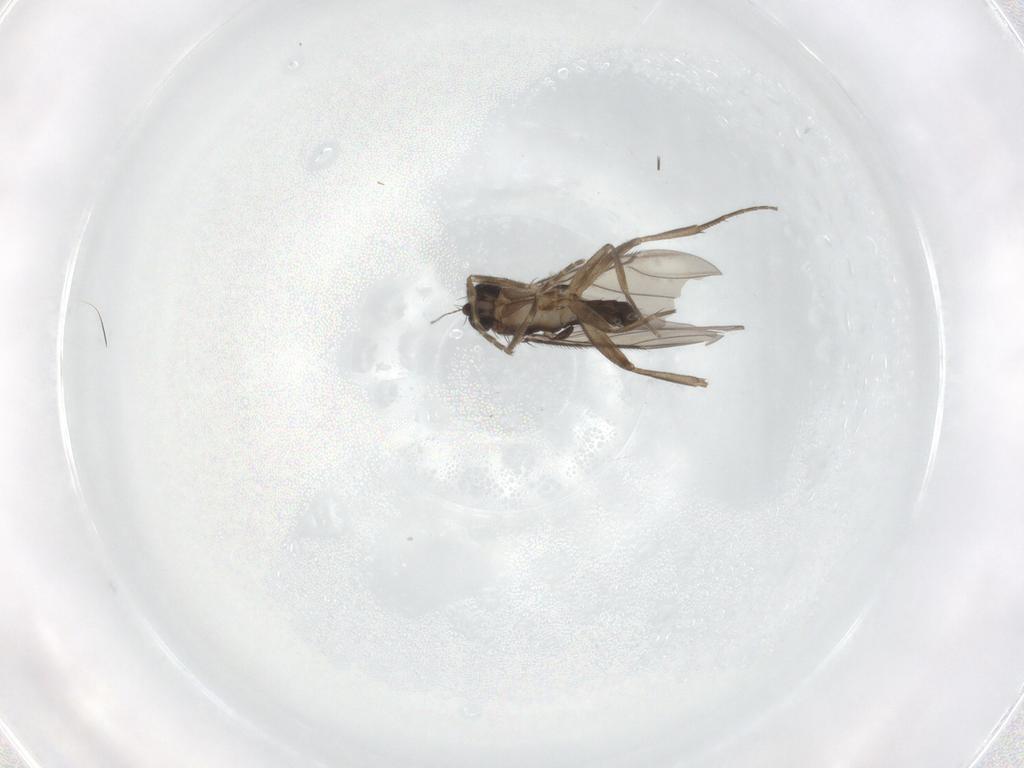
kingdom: Animalia
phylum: Arthropoda
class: Insecta
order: Diptera
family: Phoridae
